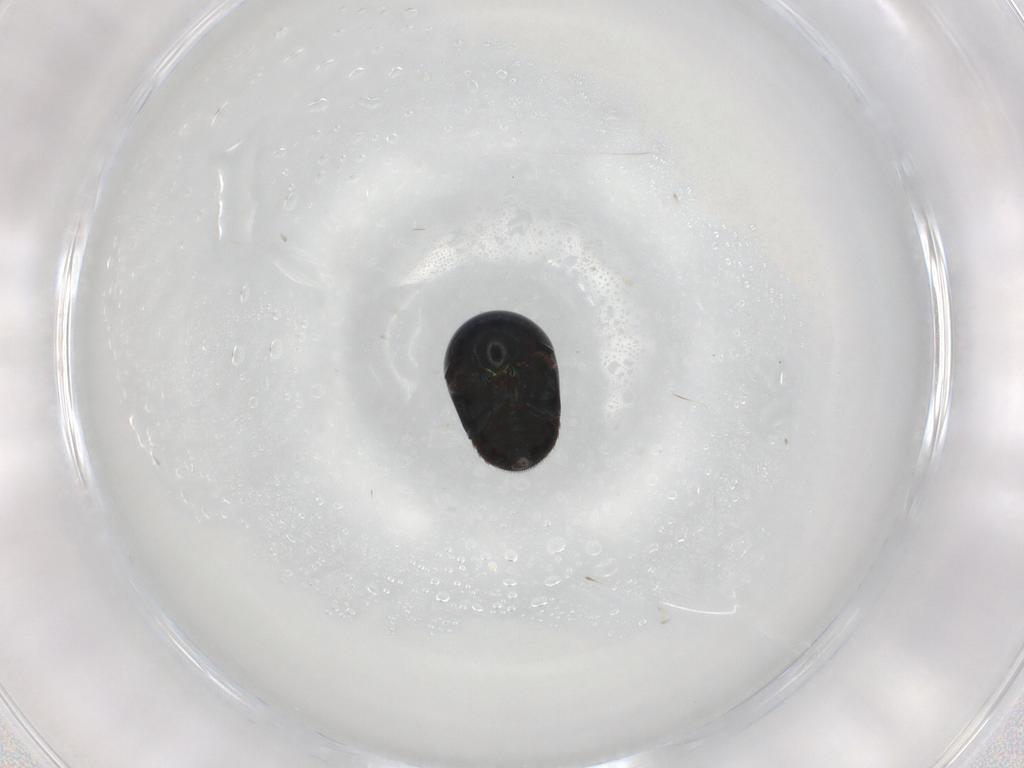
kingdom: Animalia
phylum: Arthropoda
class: Insecta
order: Coleoptera
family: Cybocephalidae
